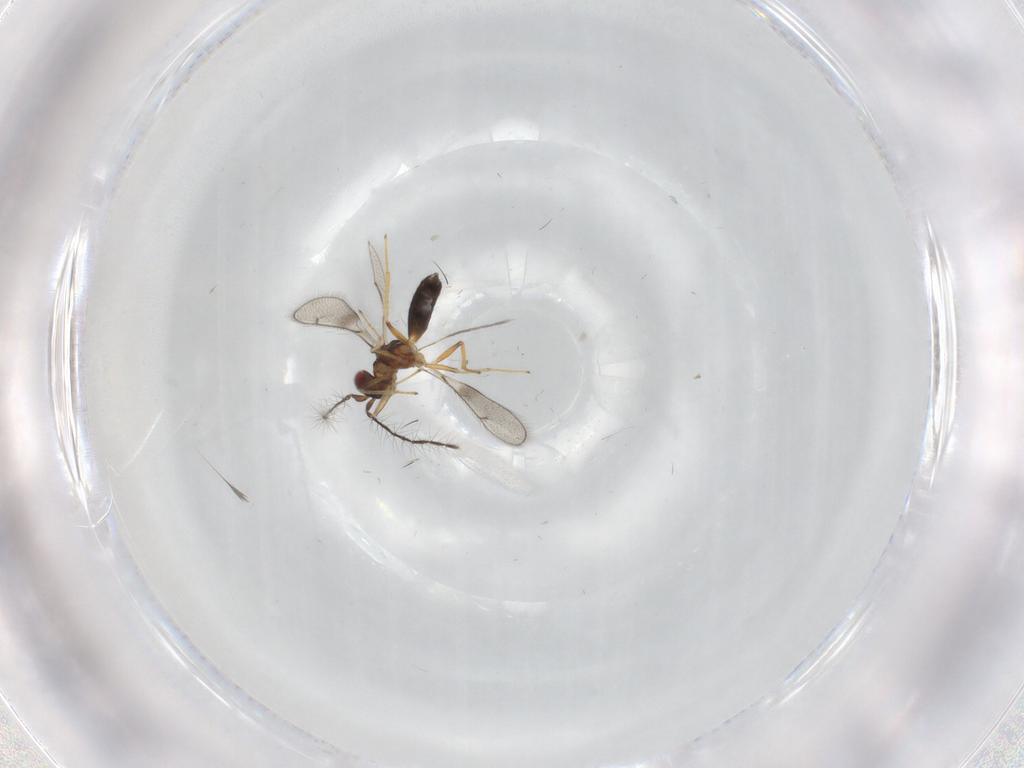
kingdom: Animalia
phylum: Arthropoda
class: Insecta
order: Hymenoptera
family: Eulophidae
